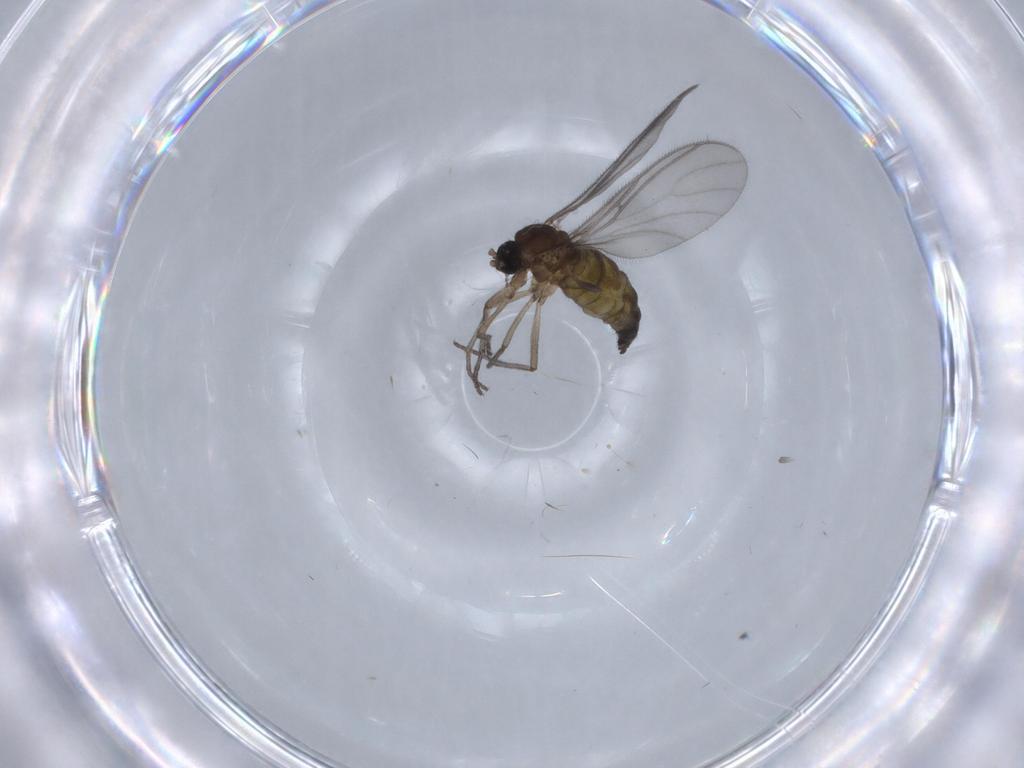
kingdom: Animalia
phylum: Arthropoda
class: Insecta
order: Diptera
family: Sciaridae
